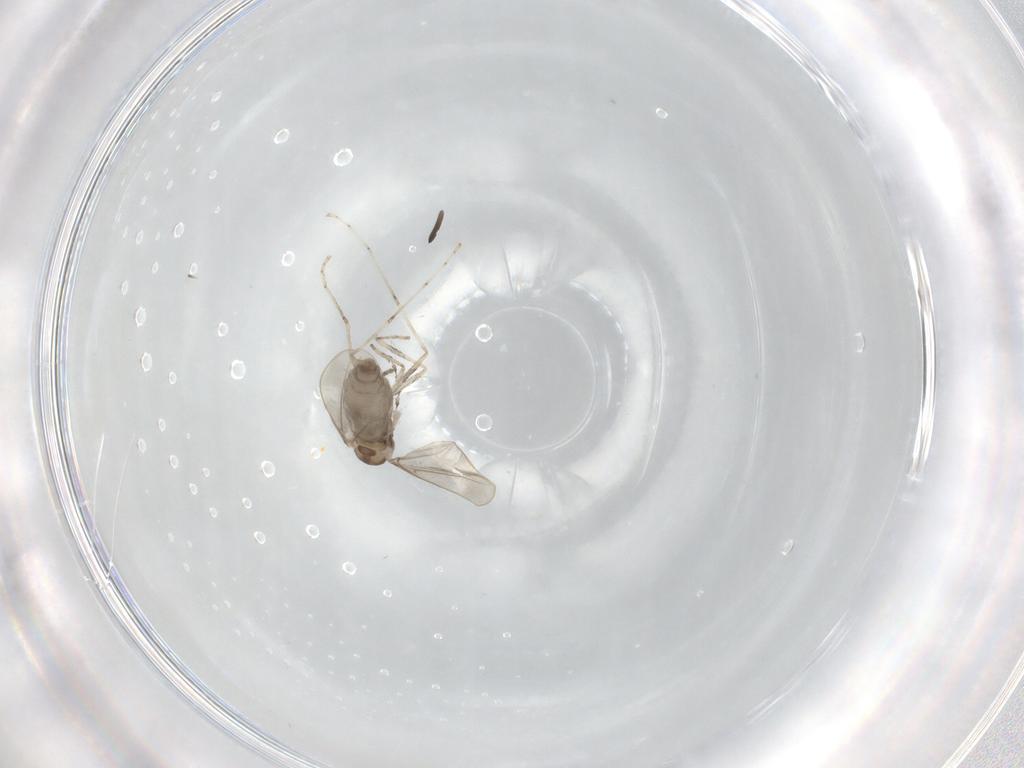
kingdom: Animalia
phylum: Arthropoda
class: Insecta
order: Diptera
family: Cecidomyiidae
